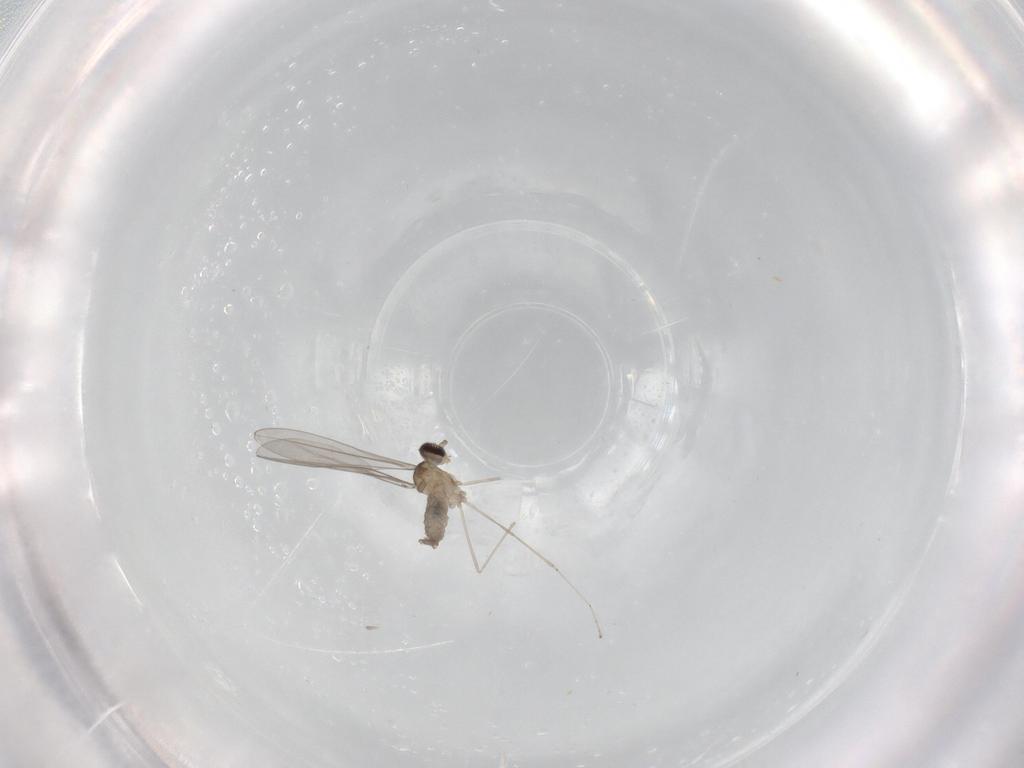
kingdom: Animalia
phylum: Arthropoda
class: Insecta
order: Diptera
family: Cecidomyiidae
